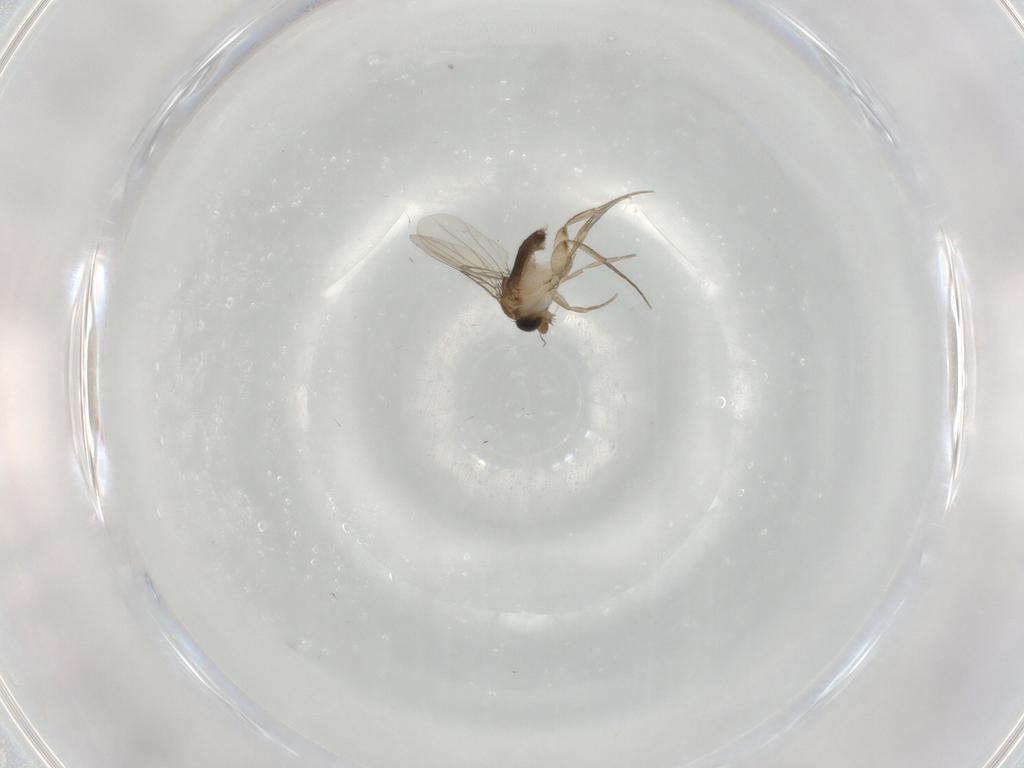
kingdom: Animalia
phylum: Arthropoda
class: Insecta
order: Diptera
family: Phoridae
